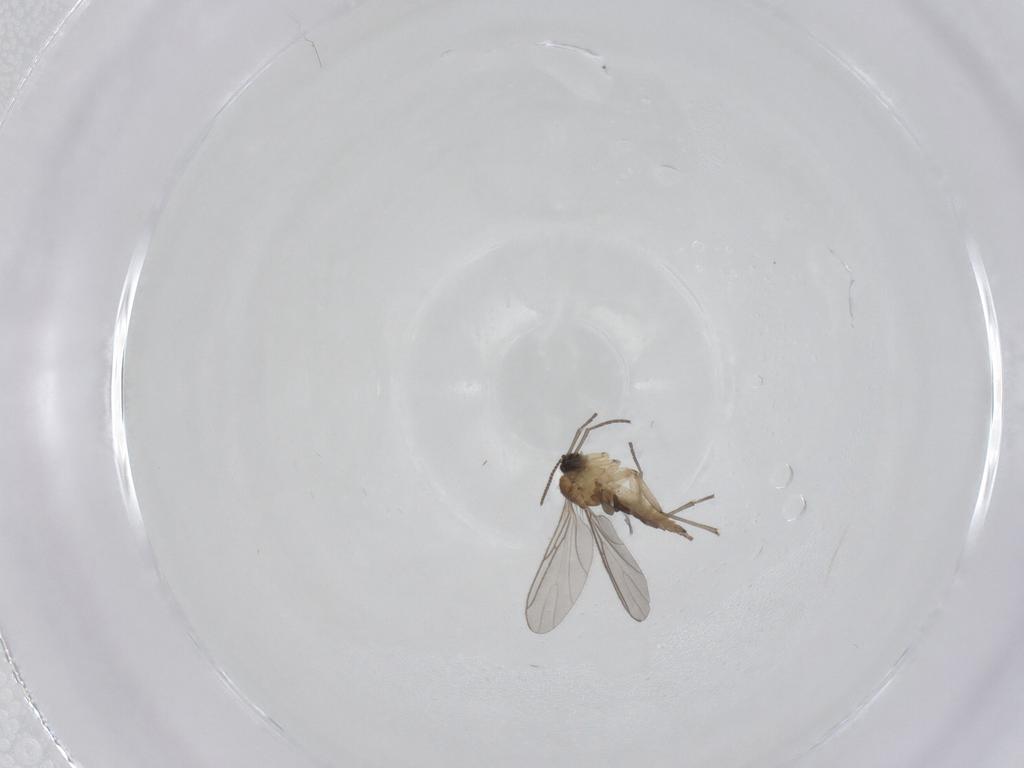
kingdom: Animalia
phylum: Arthropoda
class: Insecta
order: Diptera
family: Sciaridae
